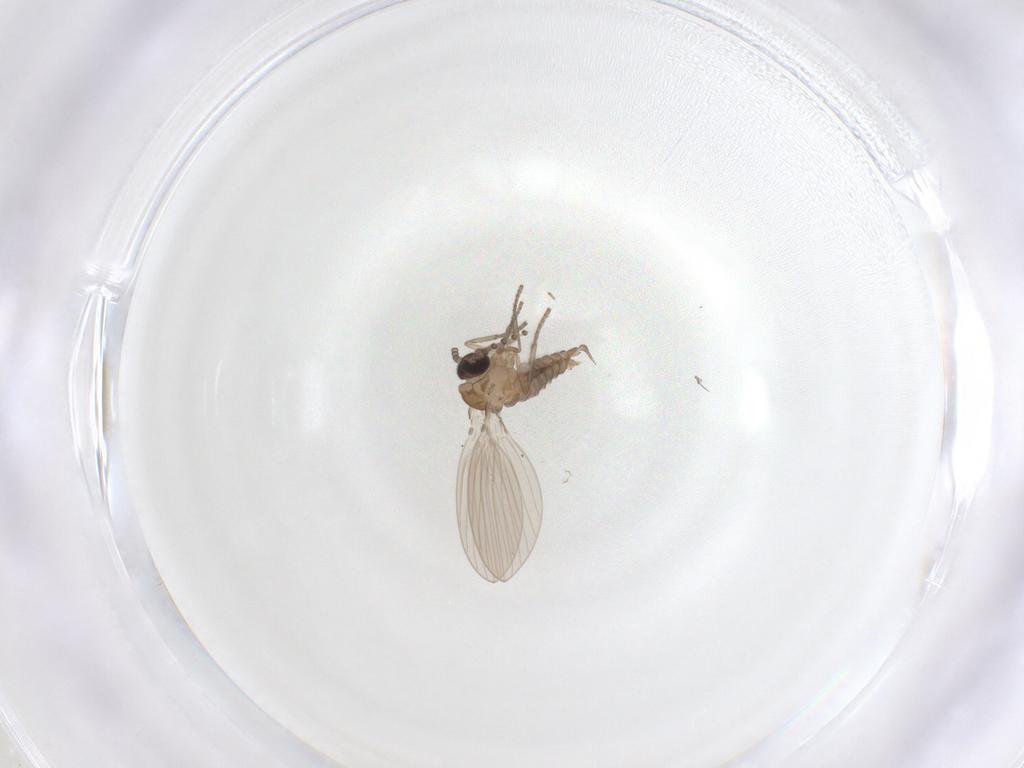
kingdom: Animalia
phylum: Arthropoda
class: Insecta
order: Diptera
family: Psychodidae
